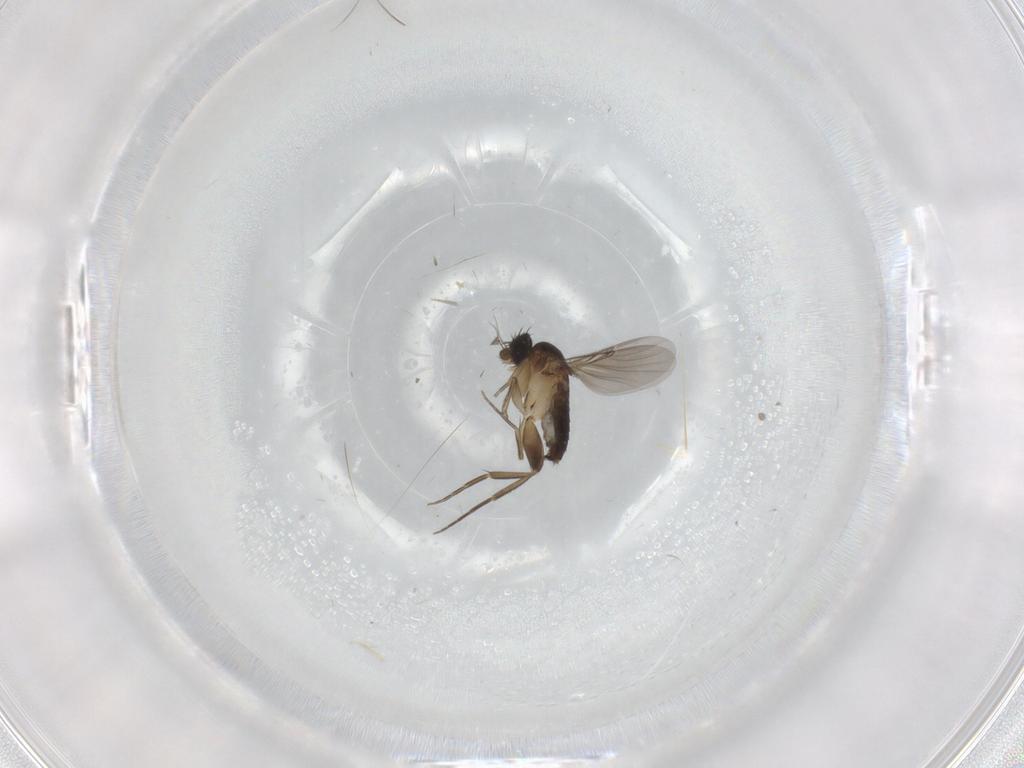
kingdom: Animalia
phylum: Arthropoda
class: Insecta
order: Diptera
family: Phoridae
